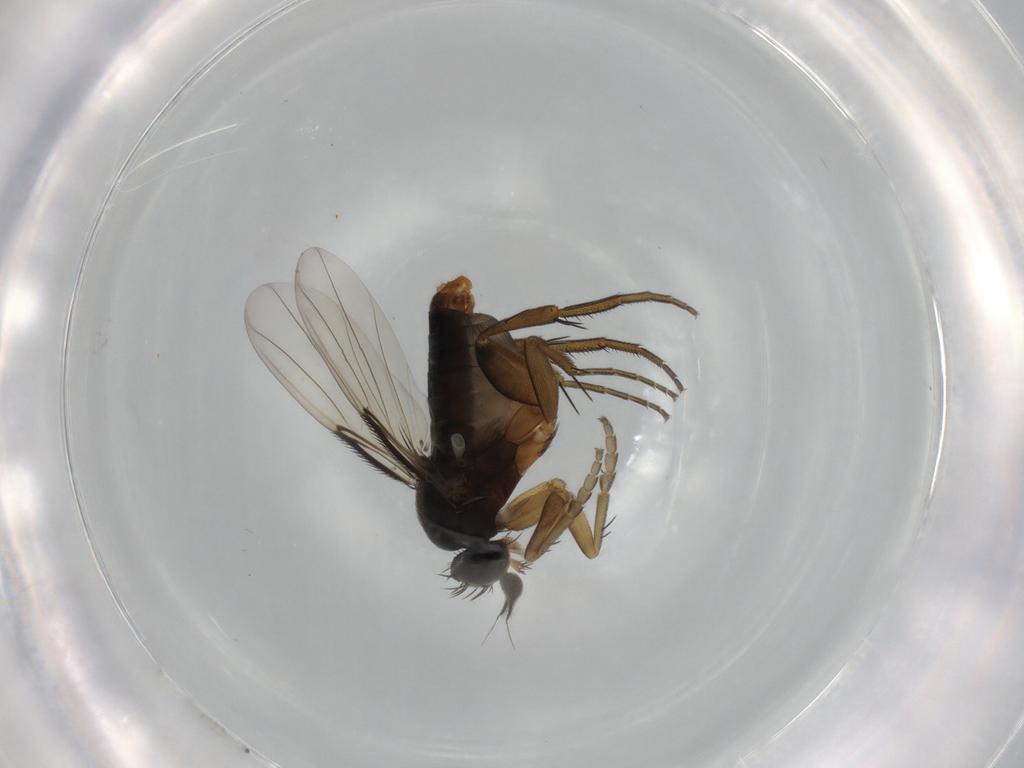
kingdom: Animalia
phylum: Arthropoda
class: Insecta
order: Diptera
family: Phoridae
